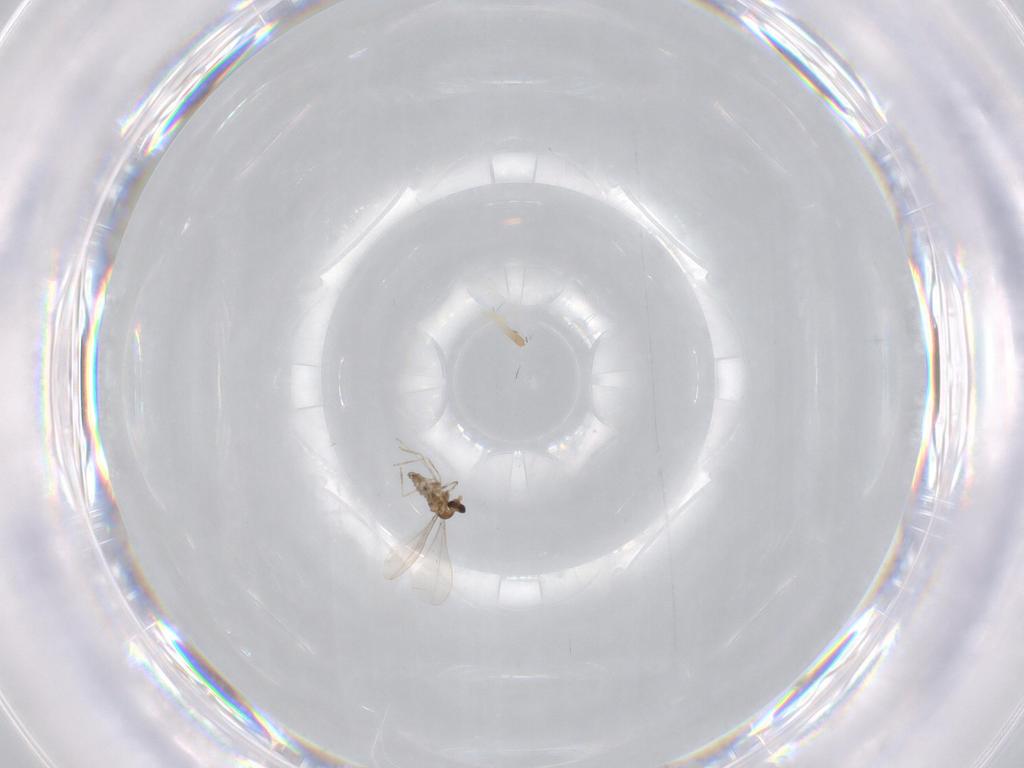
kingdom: Animalia
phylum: Arthropoda
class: Insecta
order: Diptera
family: Cecidomyiidae
